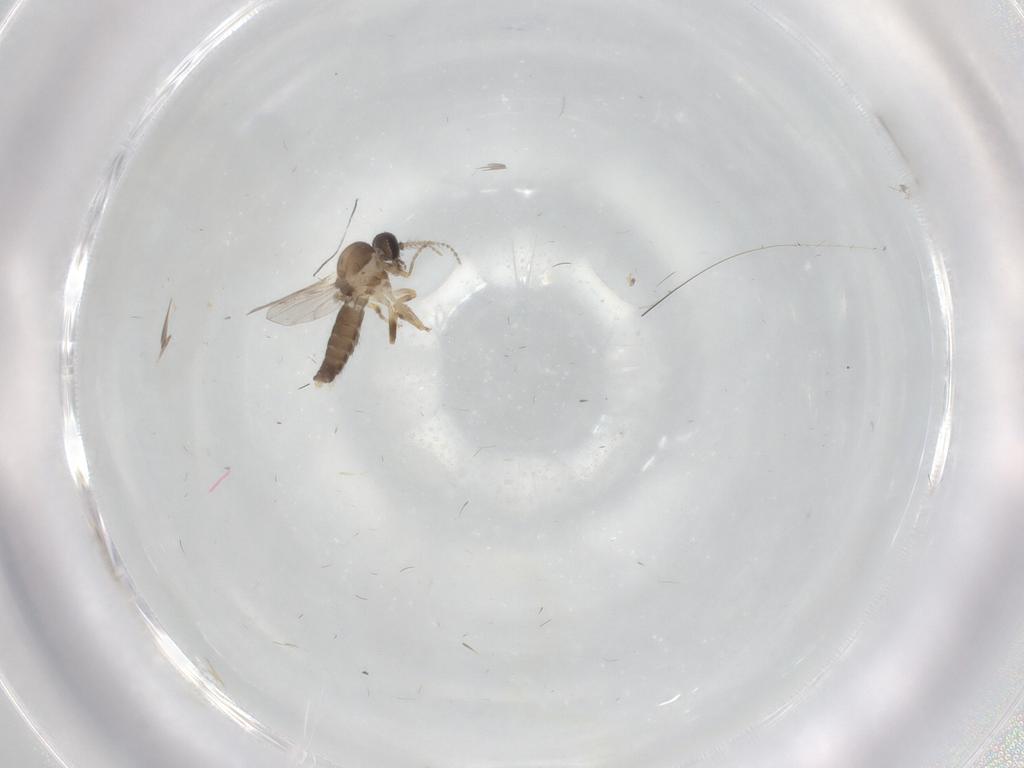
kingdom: Animalia
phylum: Arthropoda
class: Insecta
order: Diptera
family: Ceratopogonidae
